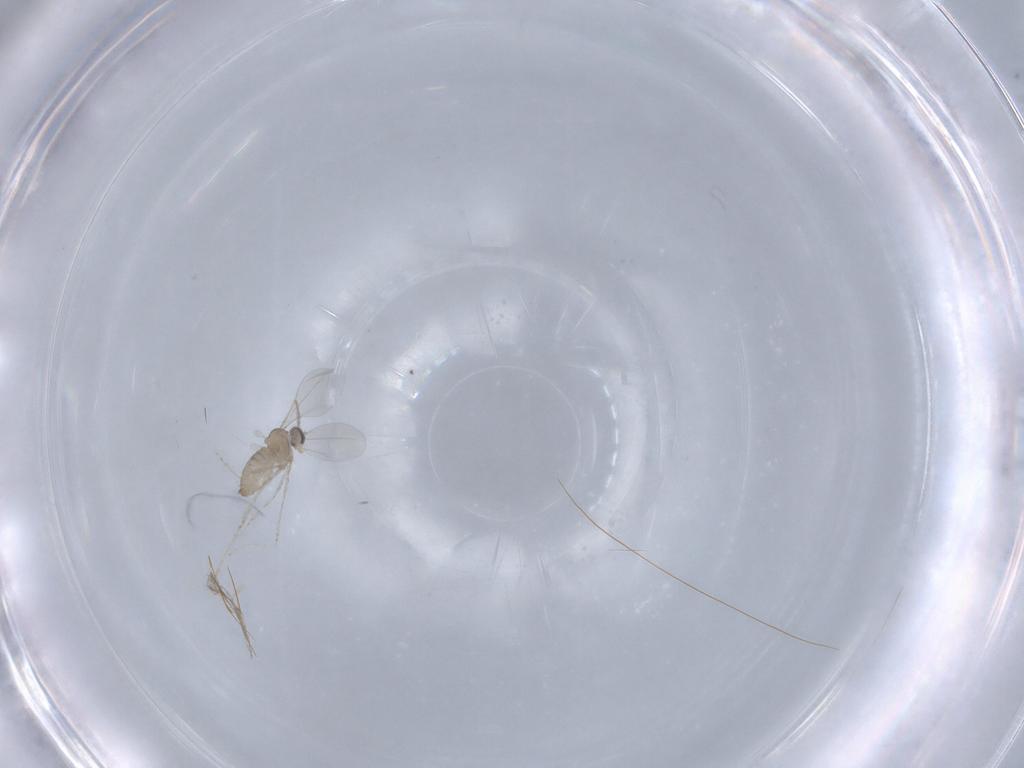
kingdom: Animalia
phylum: Arthropoda
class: Insecta
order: Diptera
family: Cecidomyiidae
